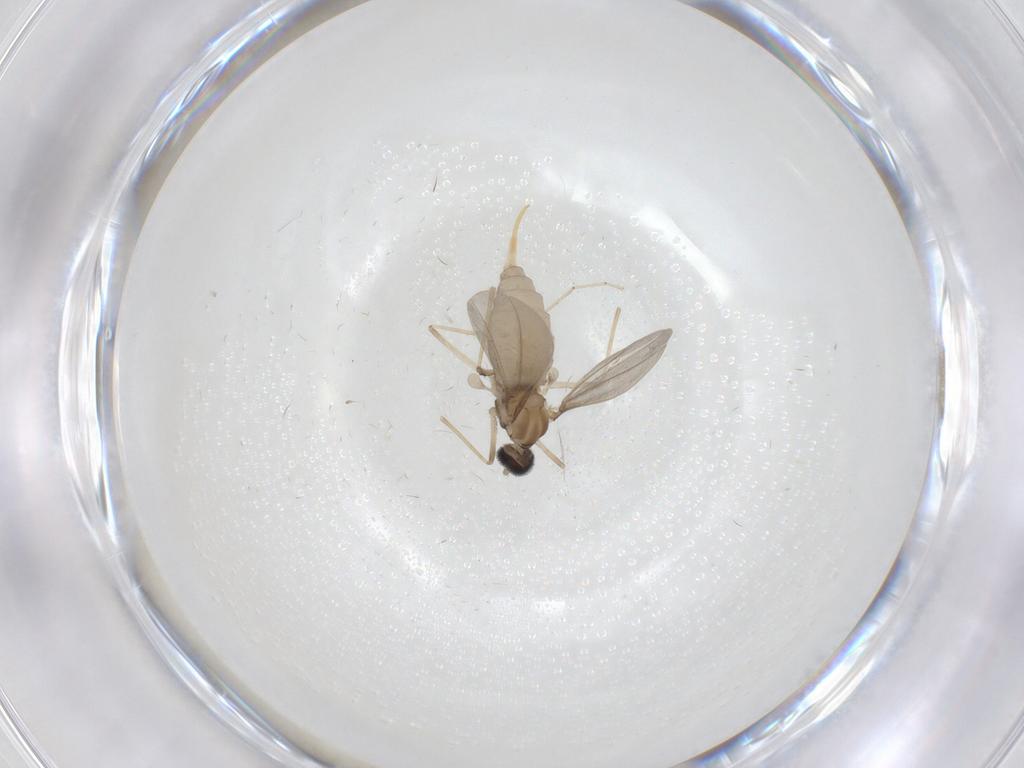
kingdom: Animalia
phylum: Arthropoda
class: Insecta
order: Diptera
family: Cecidomyiidae
